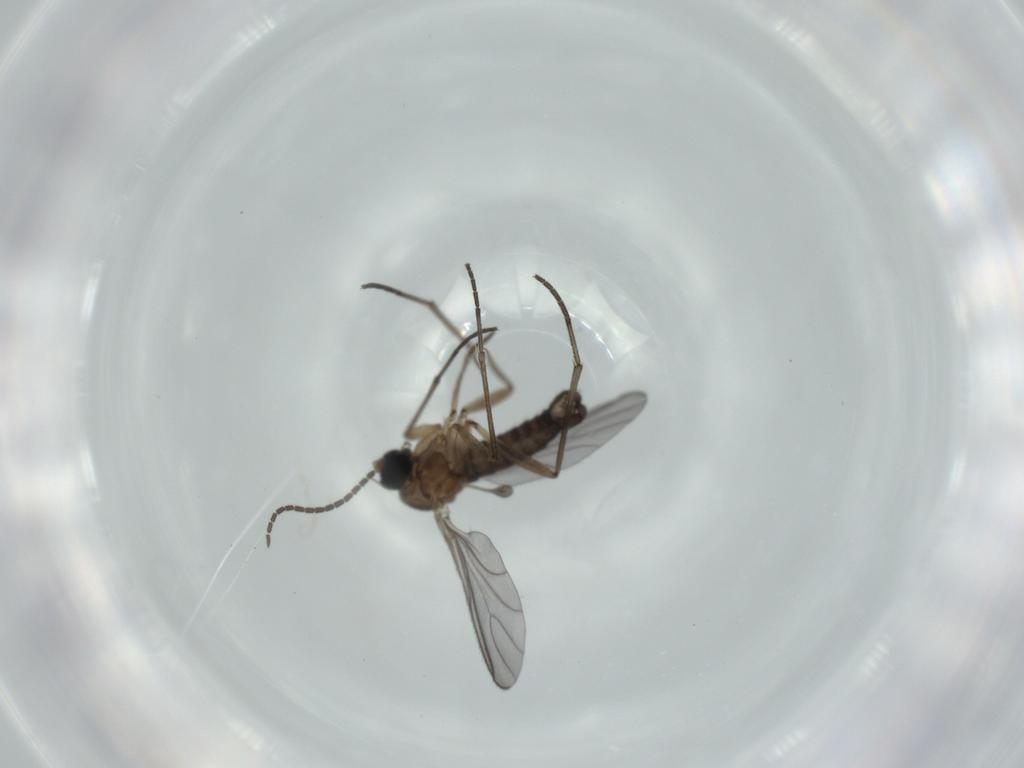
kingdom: Animalia
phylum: Arthropoda
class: Insecta
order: Diptera
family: Sciaridae
